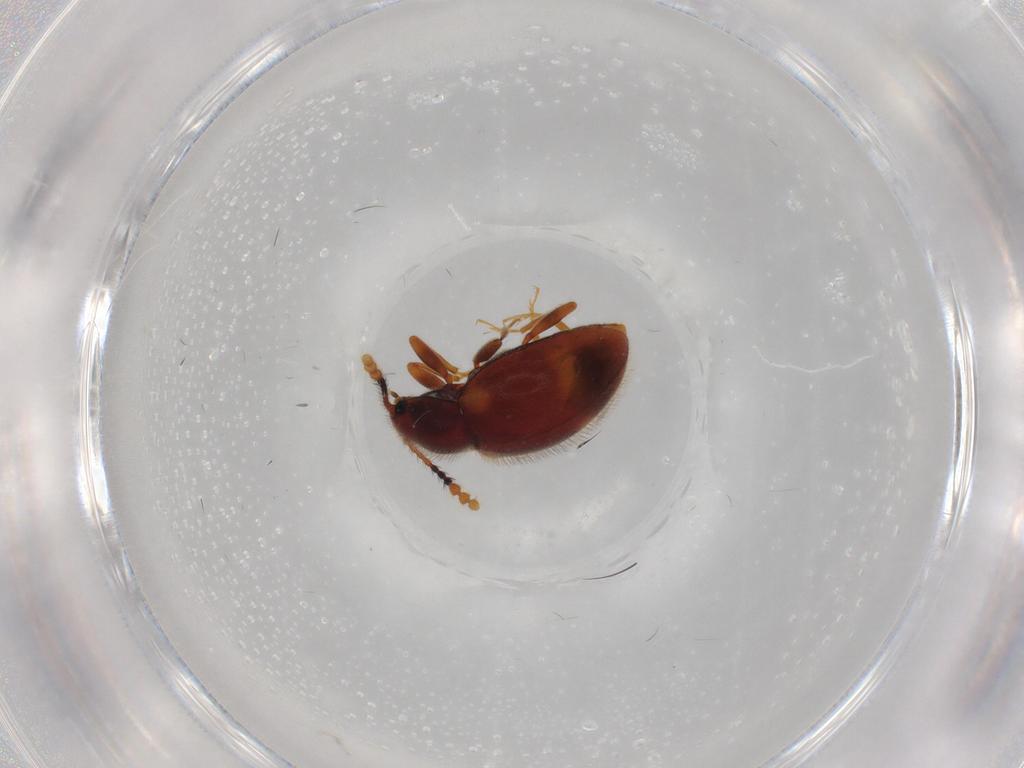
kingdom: Animalia
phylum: Arthropoda
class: Insecta
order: Coleoptera
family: Erotylidae
